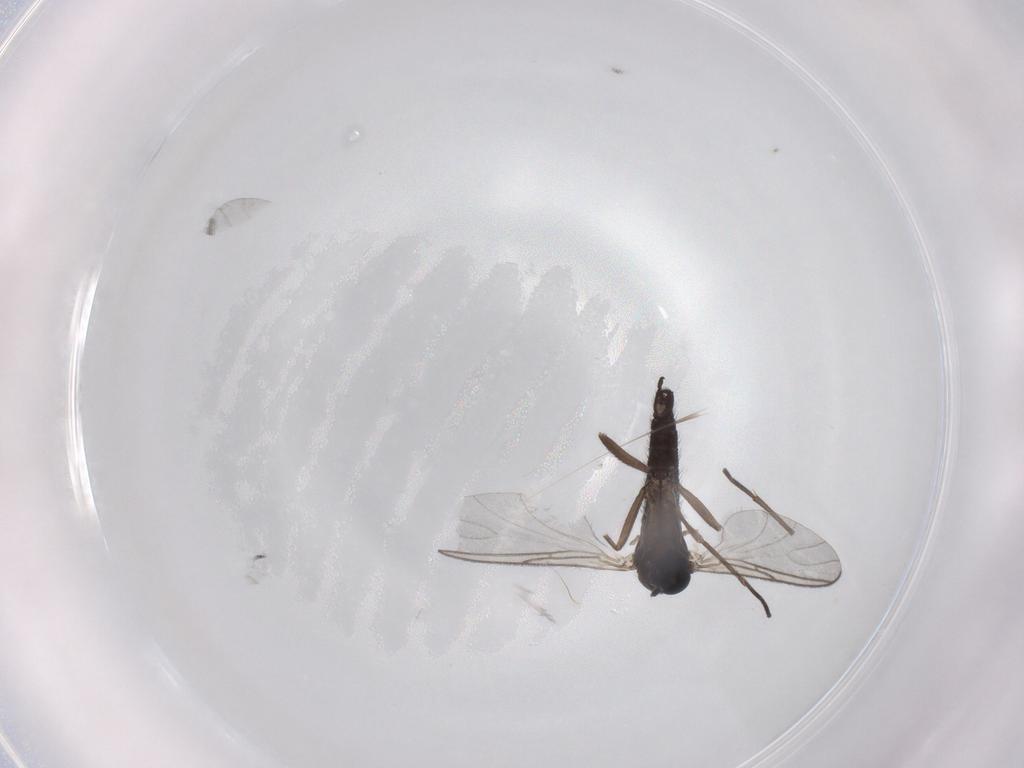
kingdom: Animalia
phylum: Arthropoda
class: Insecta
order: Diptera
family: Sciaridae
